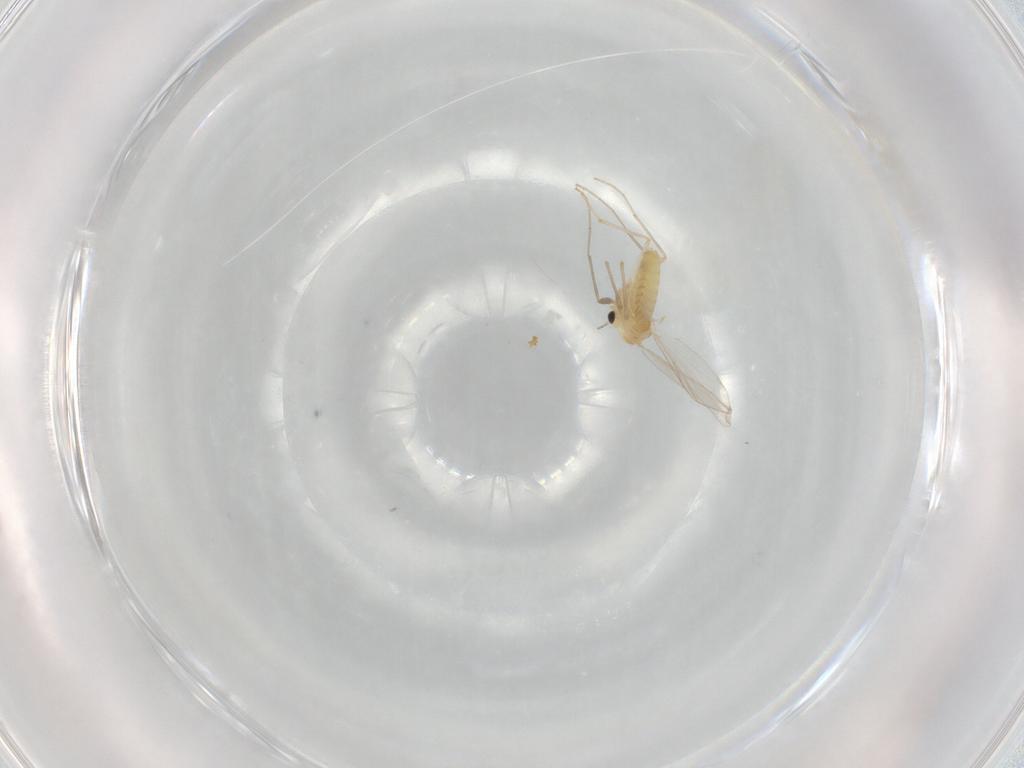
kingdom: Animalia
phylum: Arthropoda
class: Insecta
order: Diptera
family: Chironomidae
